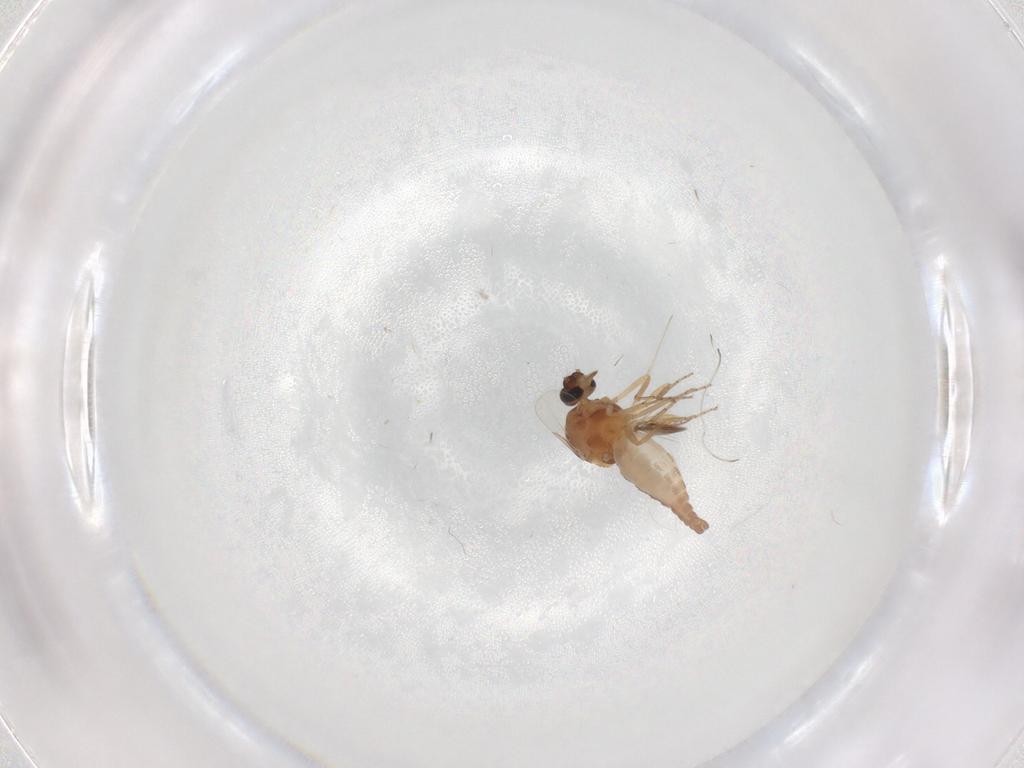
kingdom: Animalia
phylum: Arthropoda
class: Insecta
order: Diptera
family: Ceratopogonidae
